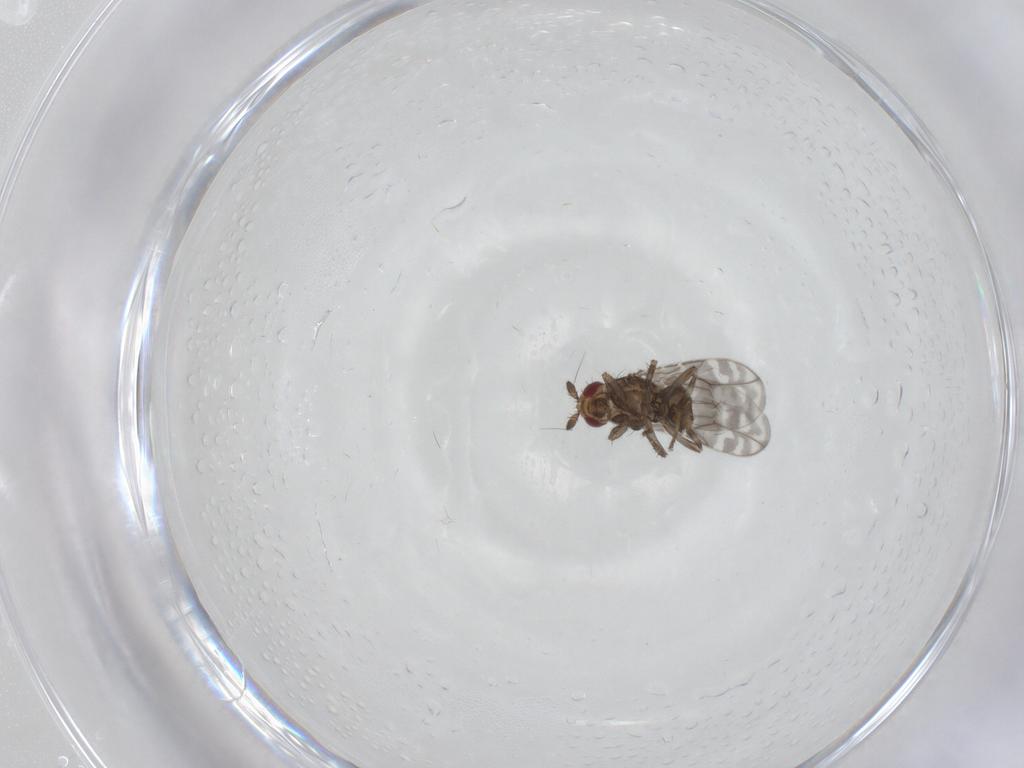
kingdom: Animalia
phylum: Arthropoda
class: Insecta
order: Diptera
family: Sphaeroceridae
